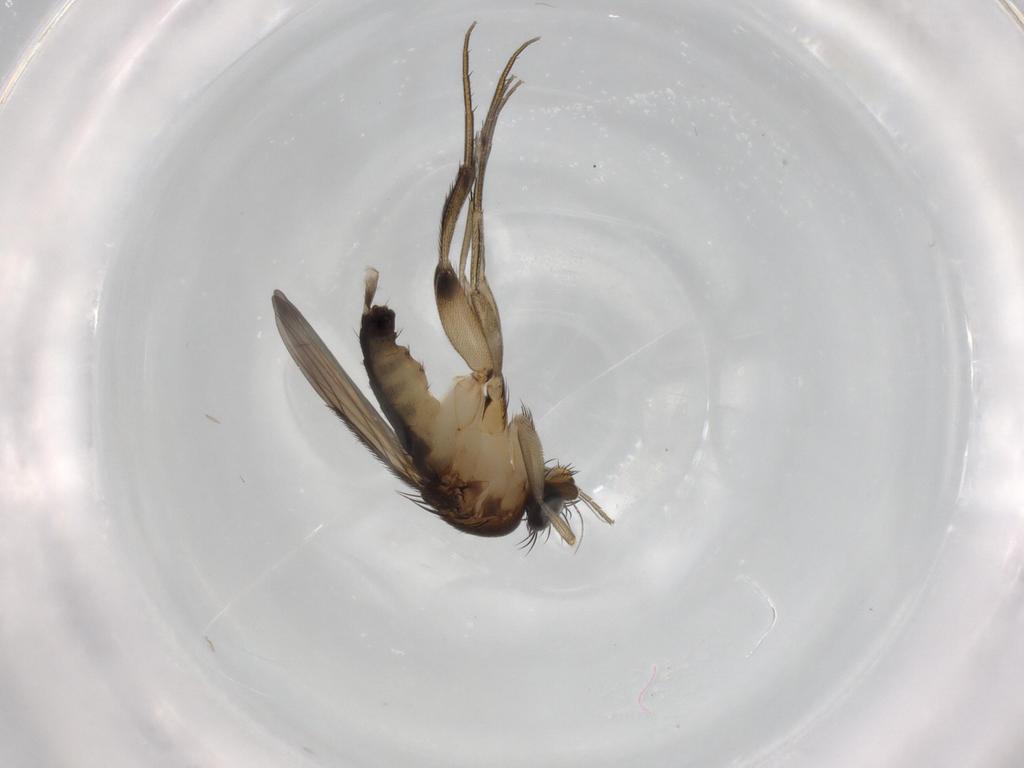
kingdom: Animalia
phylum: Arthropoda
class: Insecta
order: Diptera
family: Sciaridae
